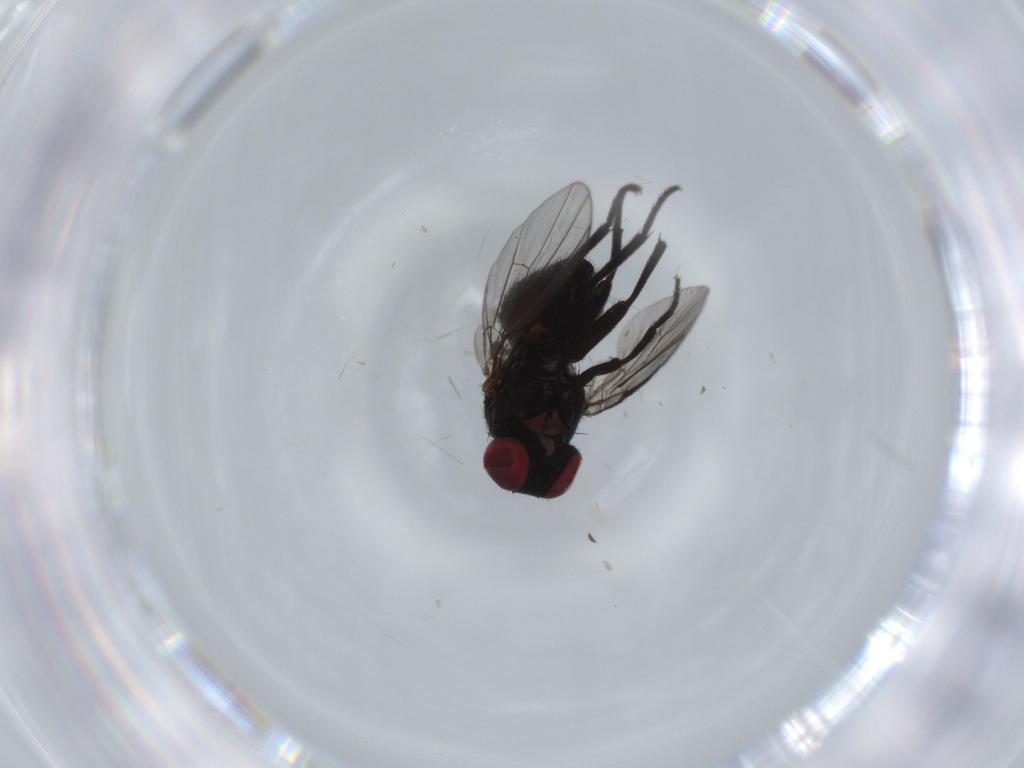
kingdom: Animalia
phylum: Arthropoda
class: Insecta
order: Diptera
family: Agromyzidae
